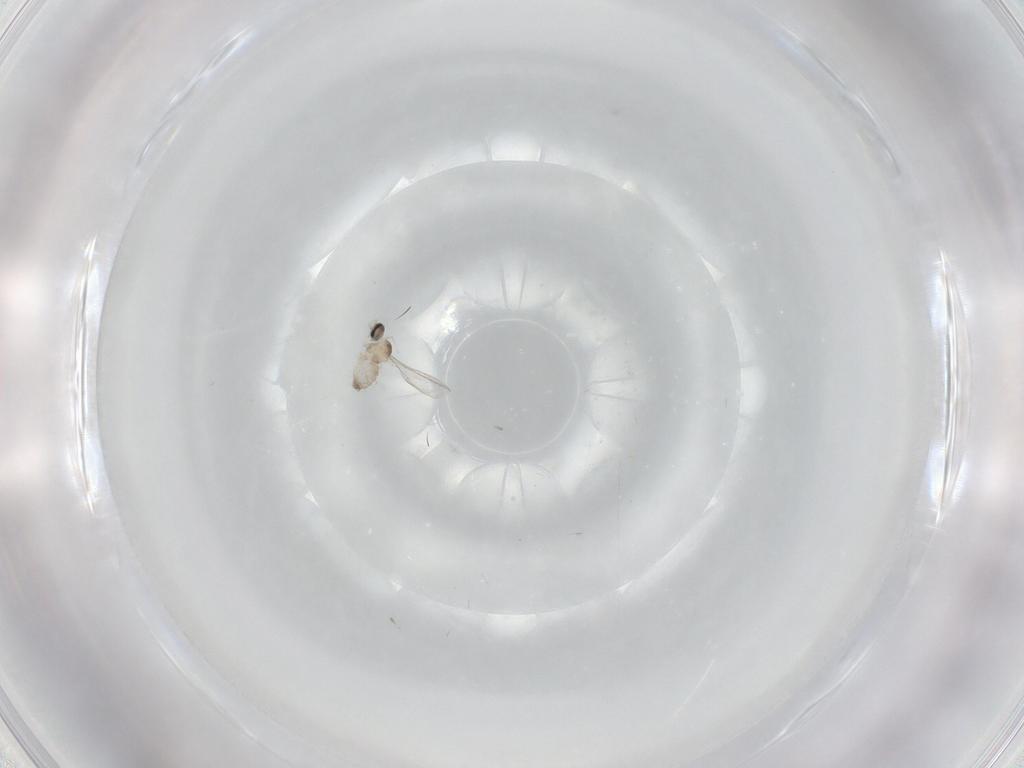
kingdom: Animalia
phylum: Arthropoda
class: Insecta
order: Diptera
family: Cecidomyiidae
